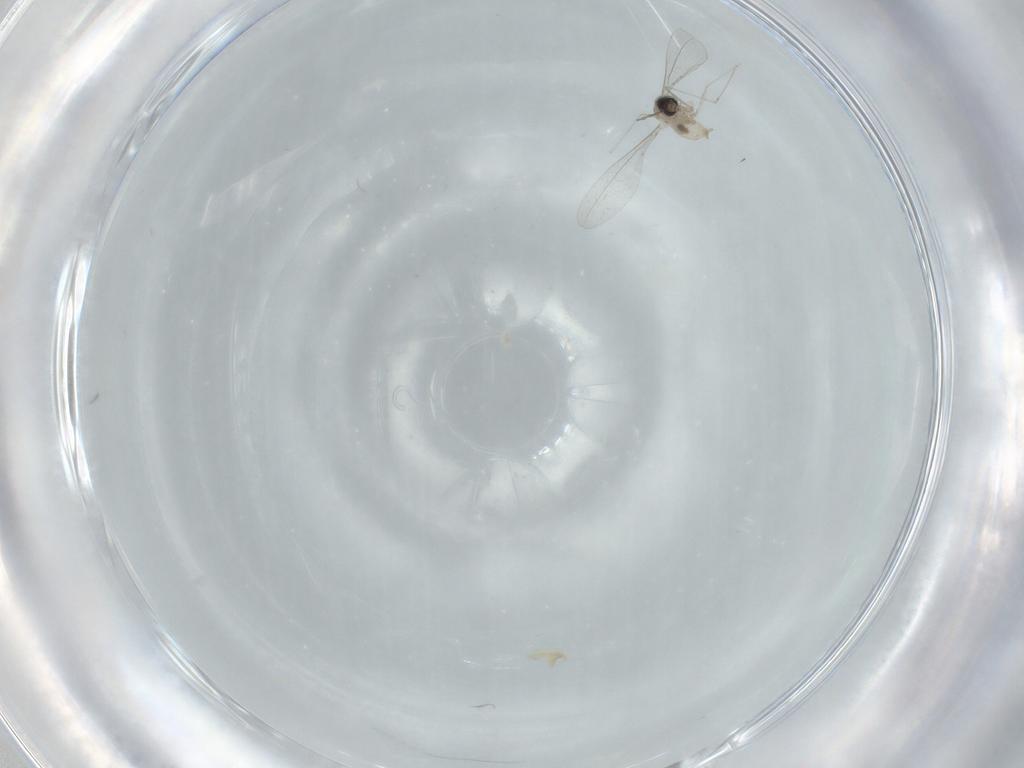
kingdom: Animalia
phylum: Arthropoda
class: Insecta
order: Diptera
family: Cecidomyiidae
